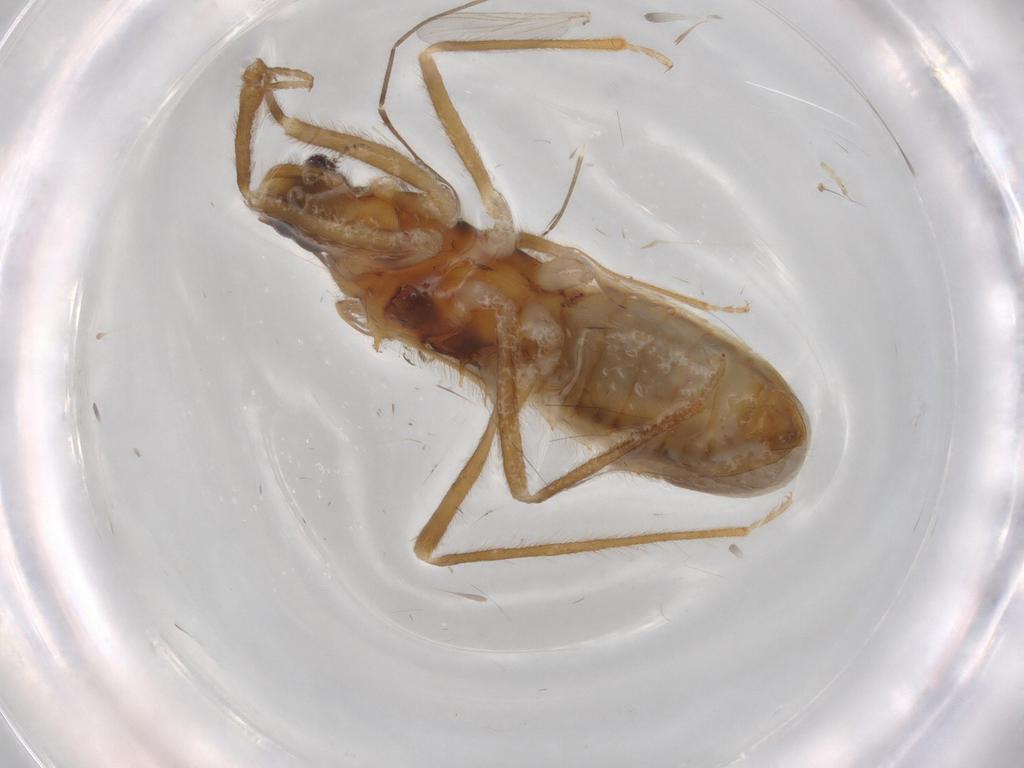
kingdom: Animalia
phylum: Arthropoda
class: Insecta
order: Hemiptera
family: Reduviidae
